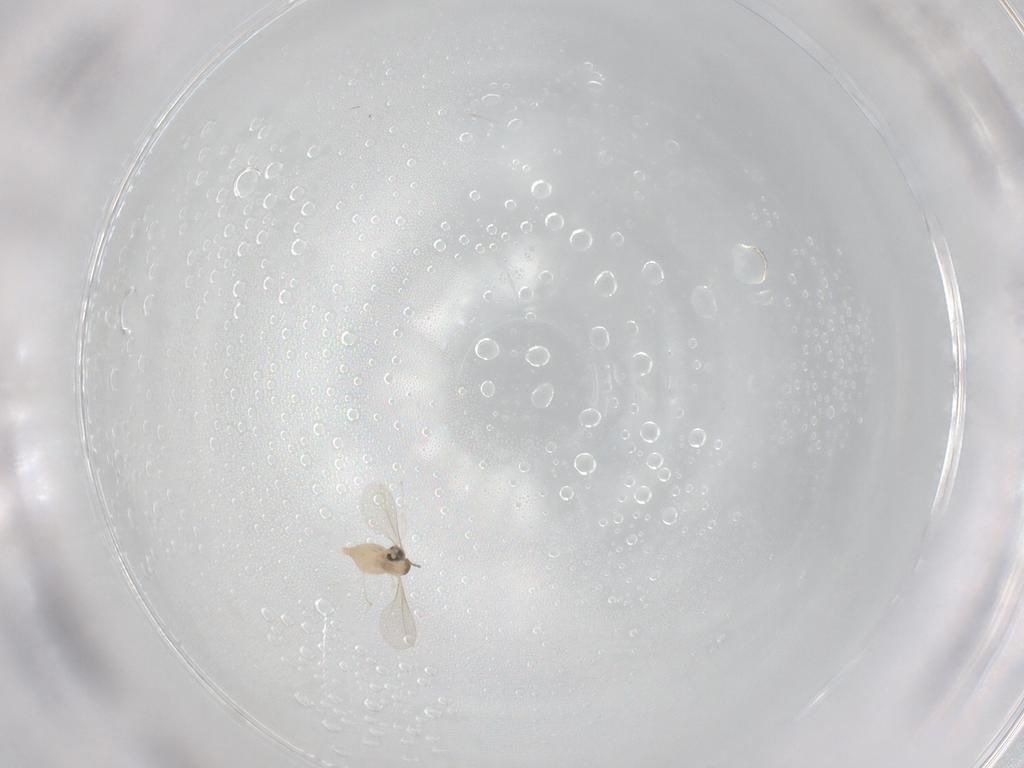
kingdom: Animalia
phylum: Arthropoda
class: Insecta
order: Diptera
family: Cecidomyiidae
